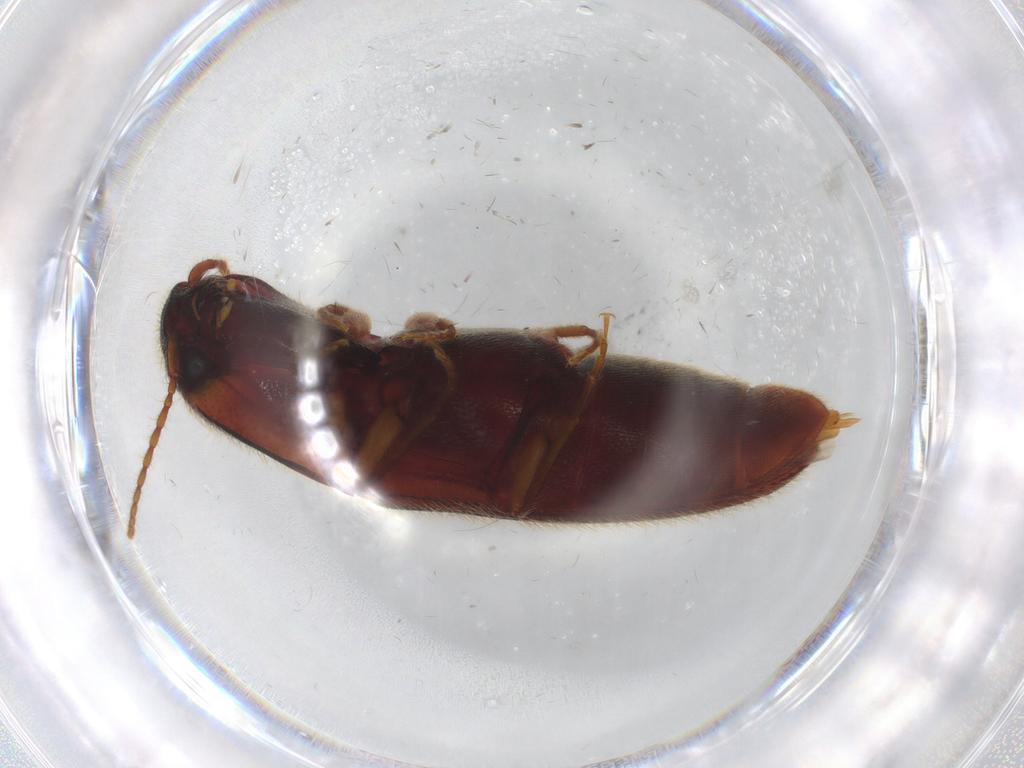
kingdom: Animalia
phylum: Arthropoda
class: Insecta
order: Coleoptera
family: Elateridae
